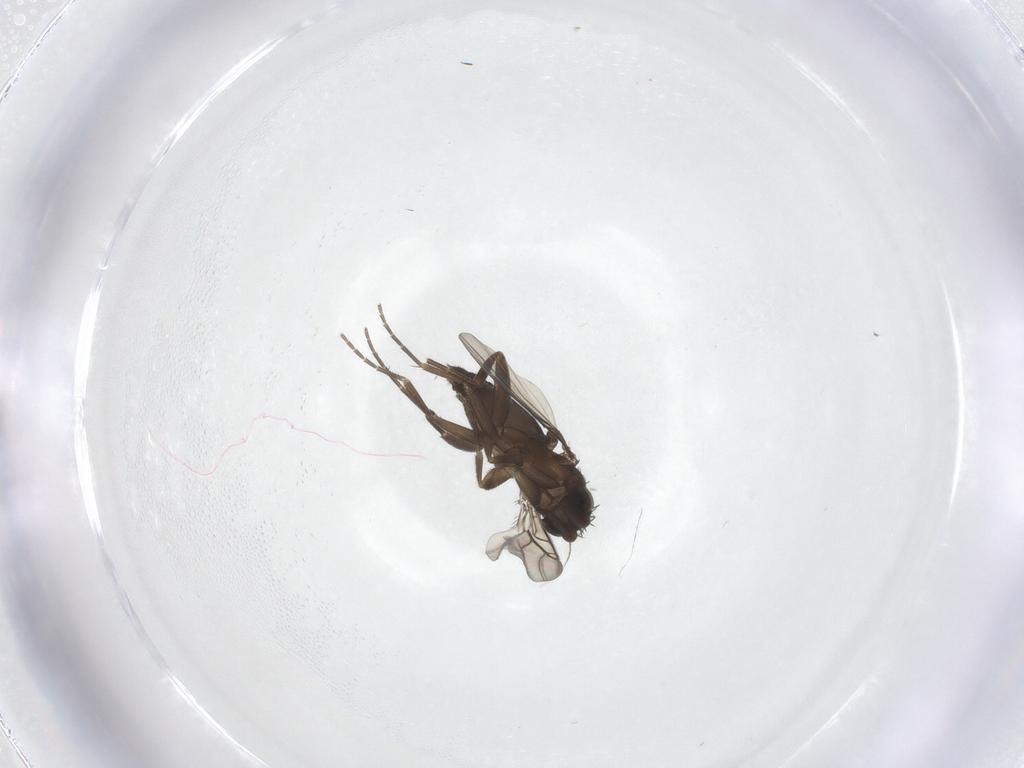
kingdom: Animalia
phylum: Arthropoda
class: Insecta
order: Diptera
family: Phoridae
